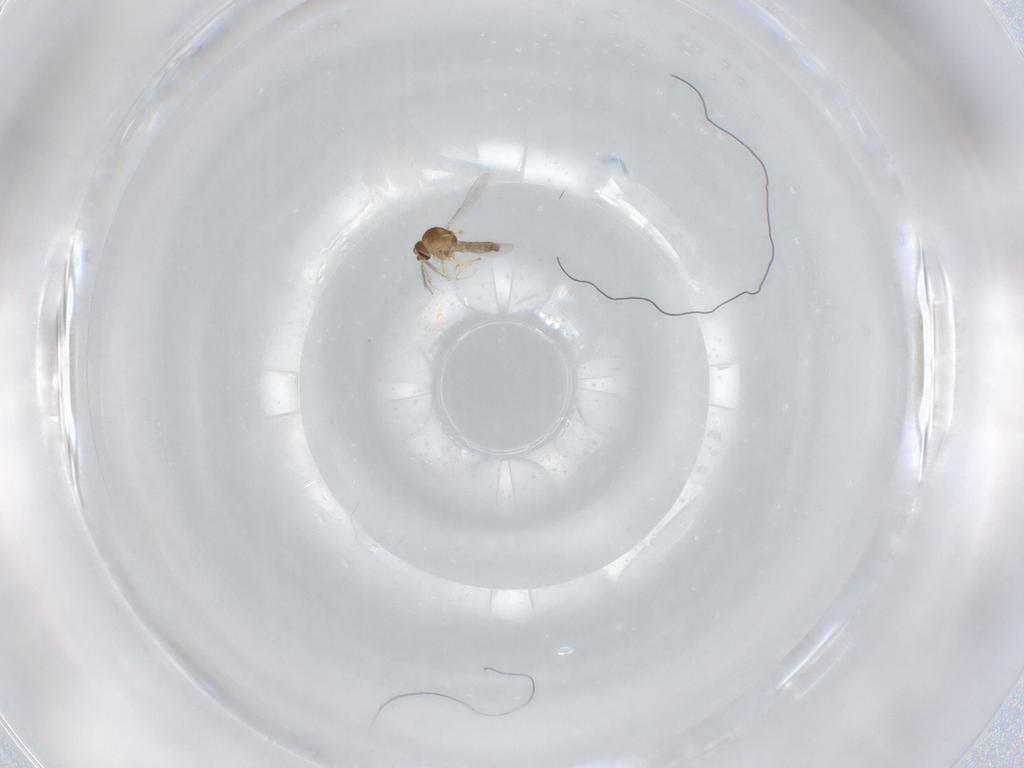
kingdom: Animalia
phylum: Arthropoda
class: Insecta
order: Diptera
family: Ceratopogonidae
